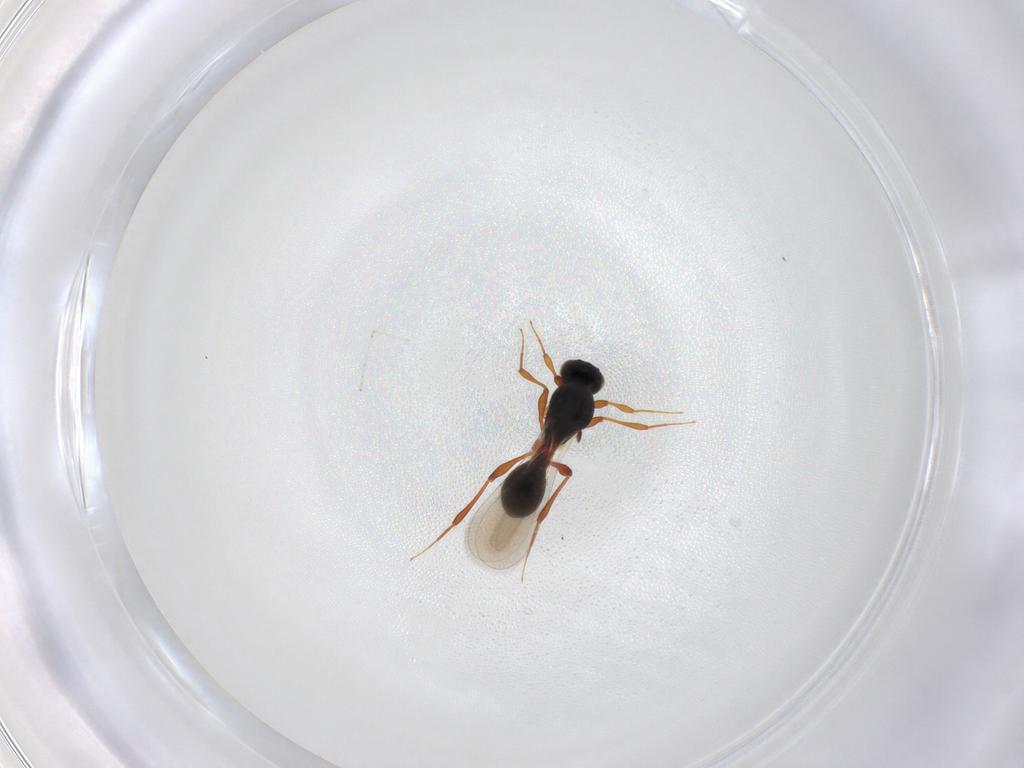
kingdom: Animalia
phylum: Arthropoda
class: Insecta
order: Hymenoptera
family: Platygastridae
